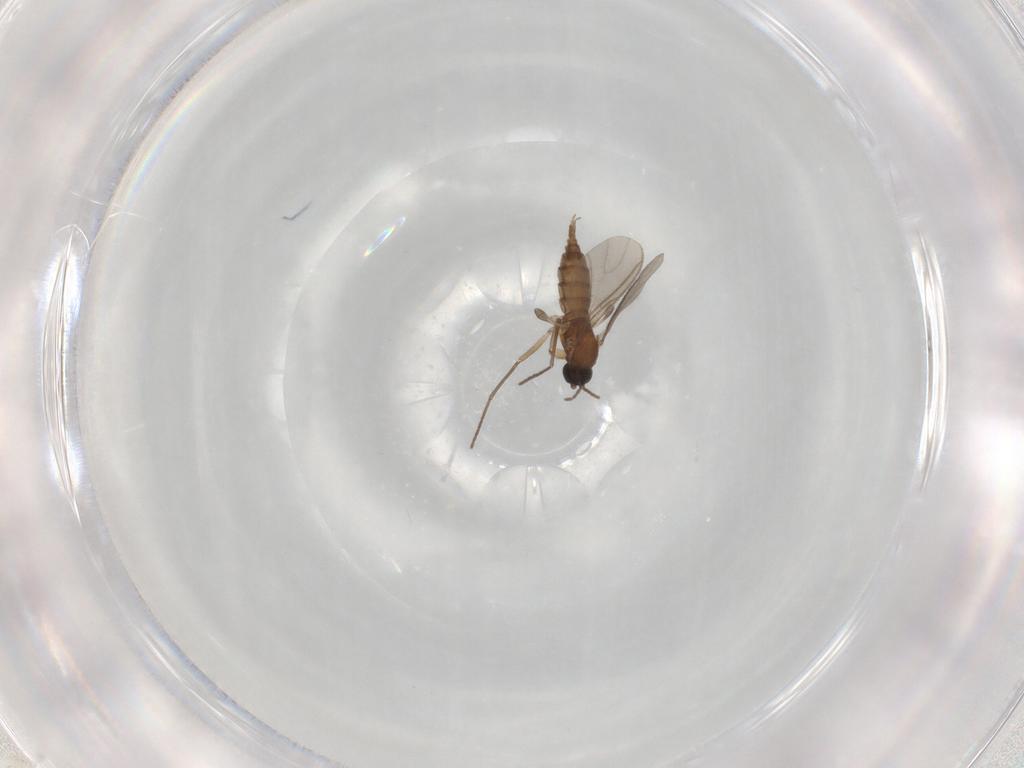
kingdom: Animalia
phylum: Arthropoda
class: Insecta
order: Diptera
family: Sciaridae
